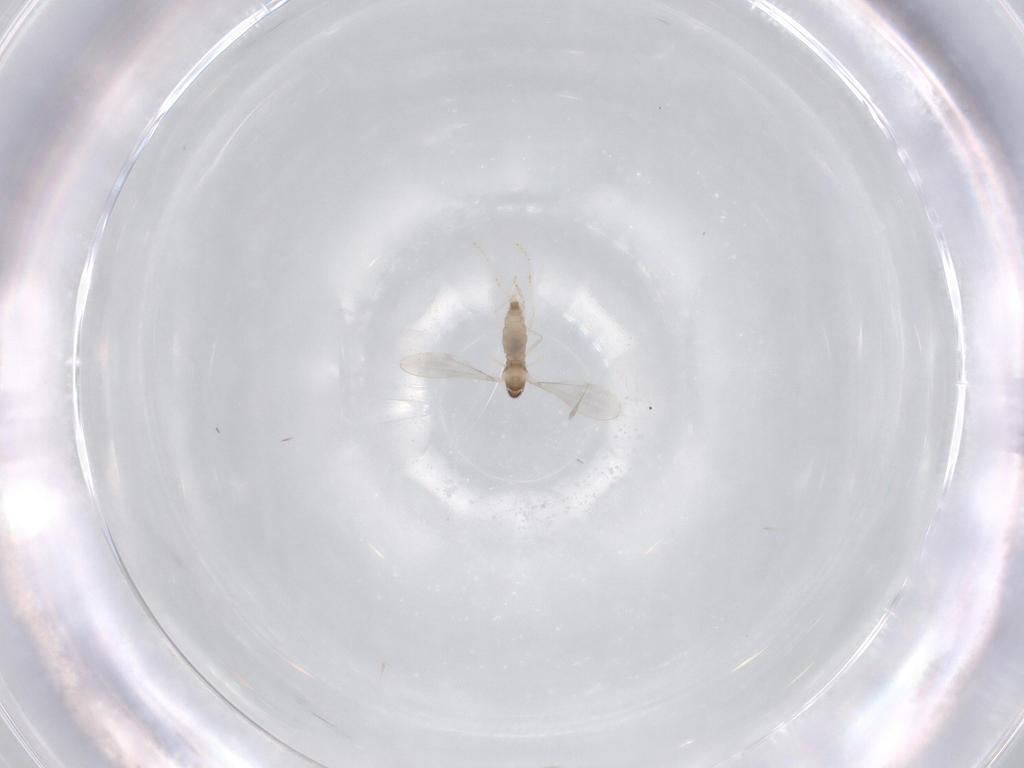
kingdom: Animalia
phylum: Arthropoda
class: Insecta
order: Diptera
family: Cecidomyiidae
